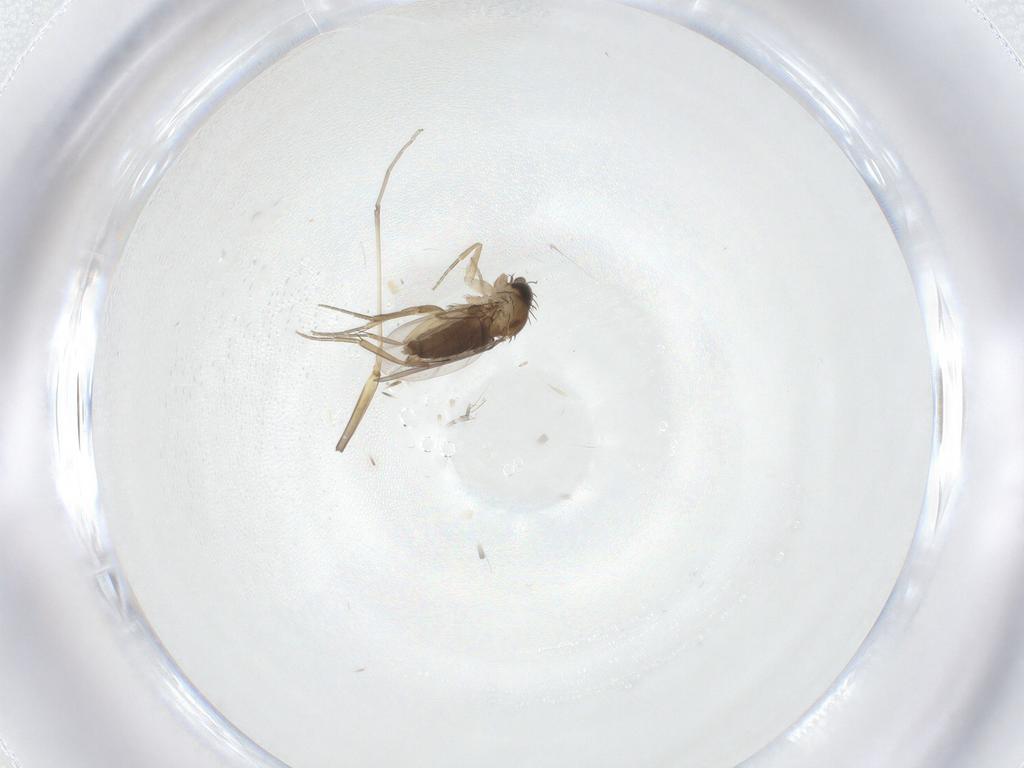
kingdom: Animalia
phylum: Arthropoda
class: Insecta
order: Diptera
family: Phoridae
